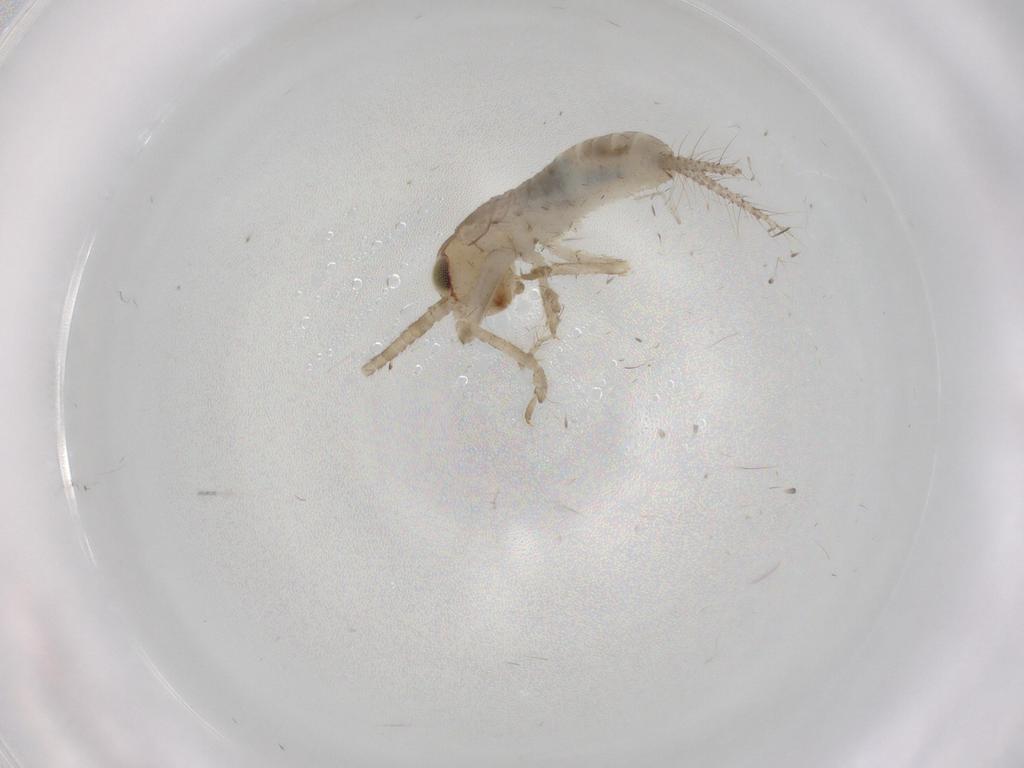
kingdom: Animalia
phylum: Arthropoda
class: Insecta
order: Orthoptera
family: Gryllidae
